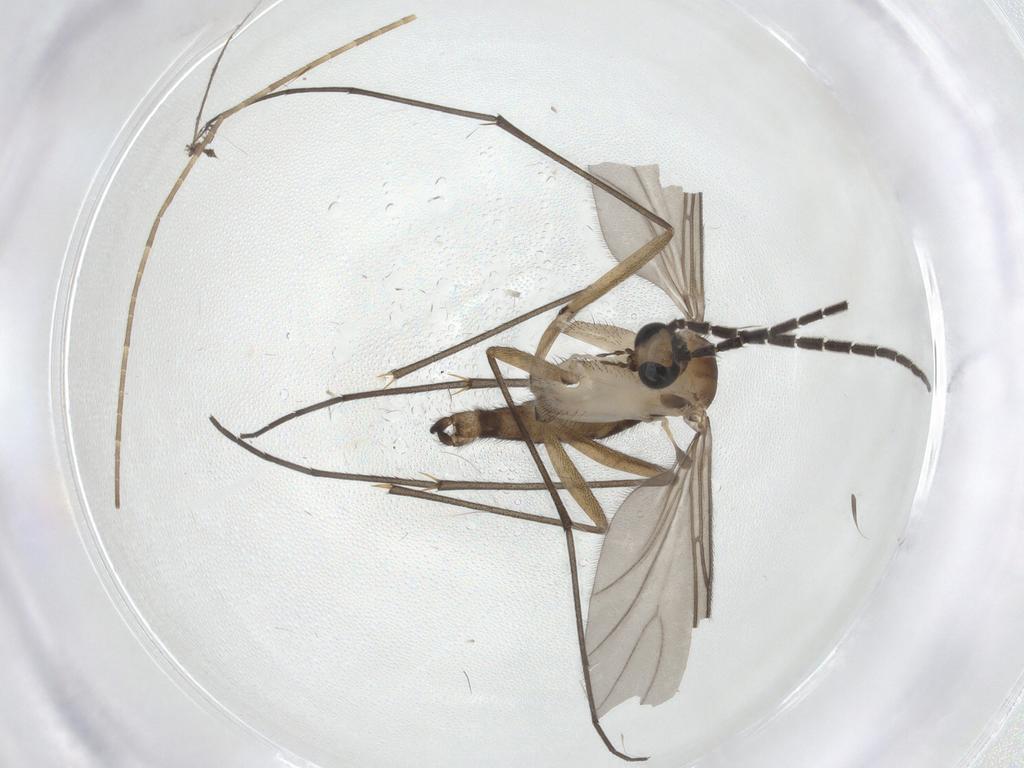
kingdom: Animalia
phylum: Arthropoda
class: Insecta
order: Diptera
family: Sciaridae
